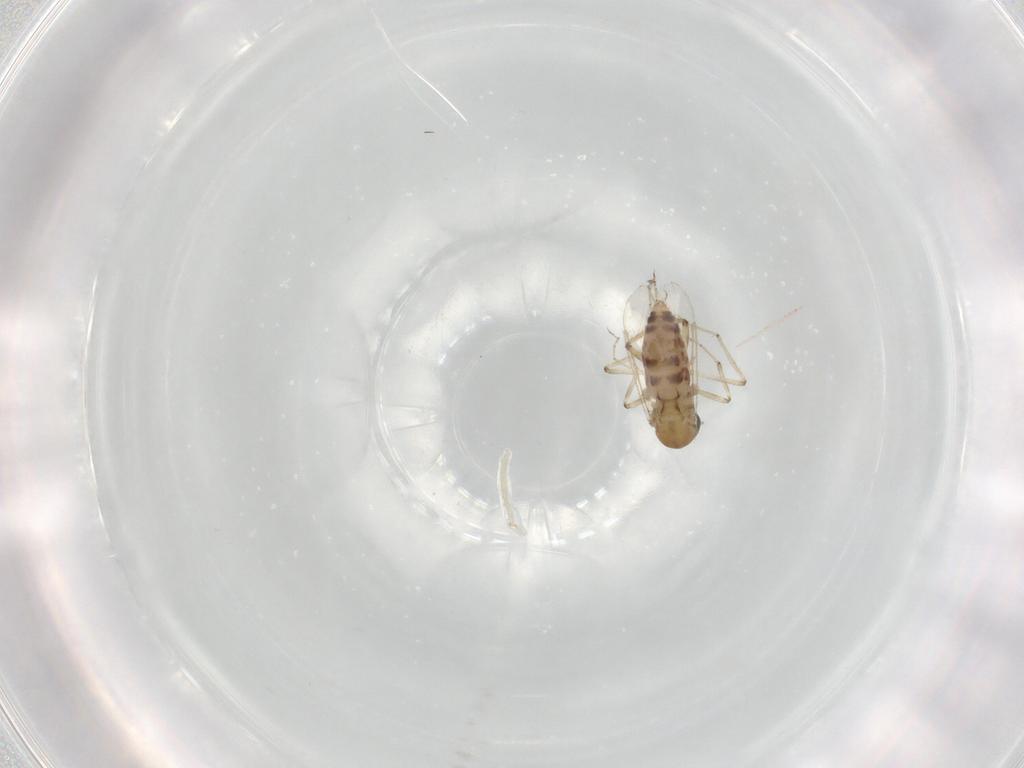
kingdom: Animalia
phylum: Arthropoda
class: Insecta
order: Diptera
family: Ceratopogonidae
